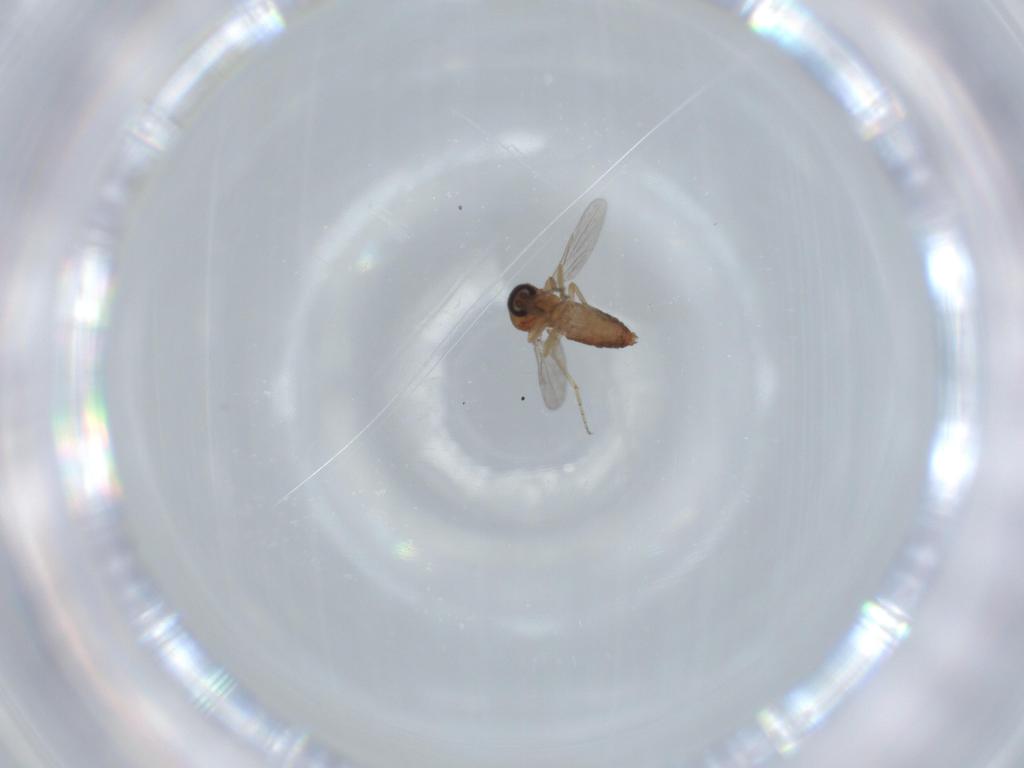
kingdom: Animalia
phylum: Arthropoda
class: Insecta
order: Diptera
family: Ceratopogonidae
